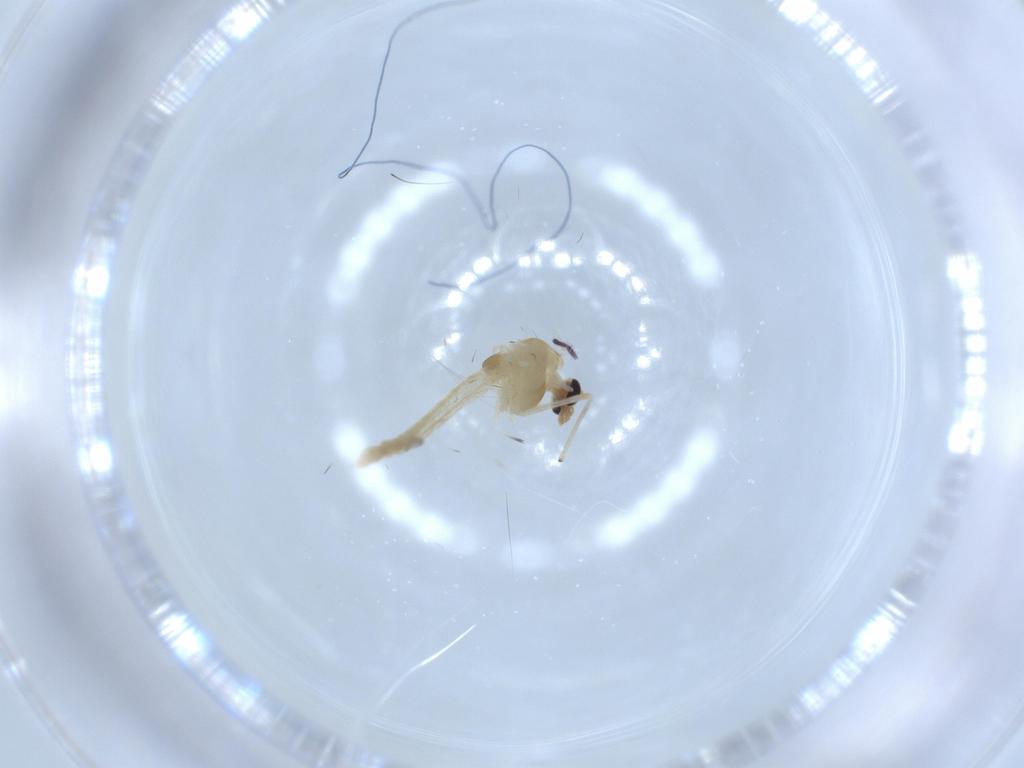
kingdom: Animalia
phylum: Arthropoda
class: Insecta
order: Diptera
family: Chironomidae
